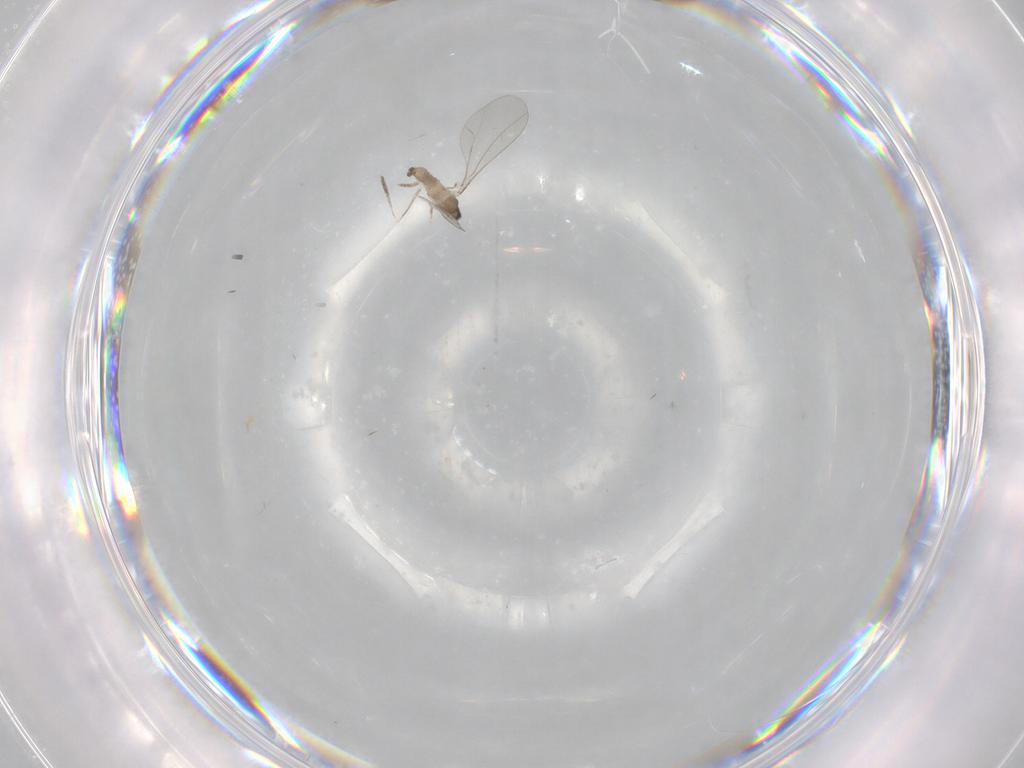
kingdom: Animalia
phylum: Arthropoda
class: Insecta
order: Diptera
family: Cecidomyiidae
